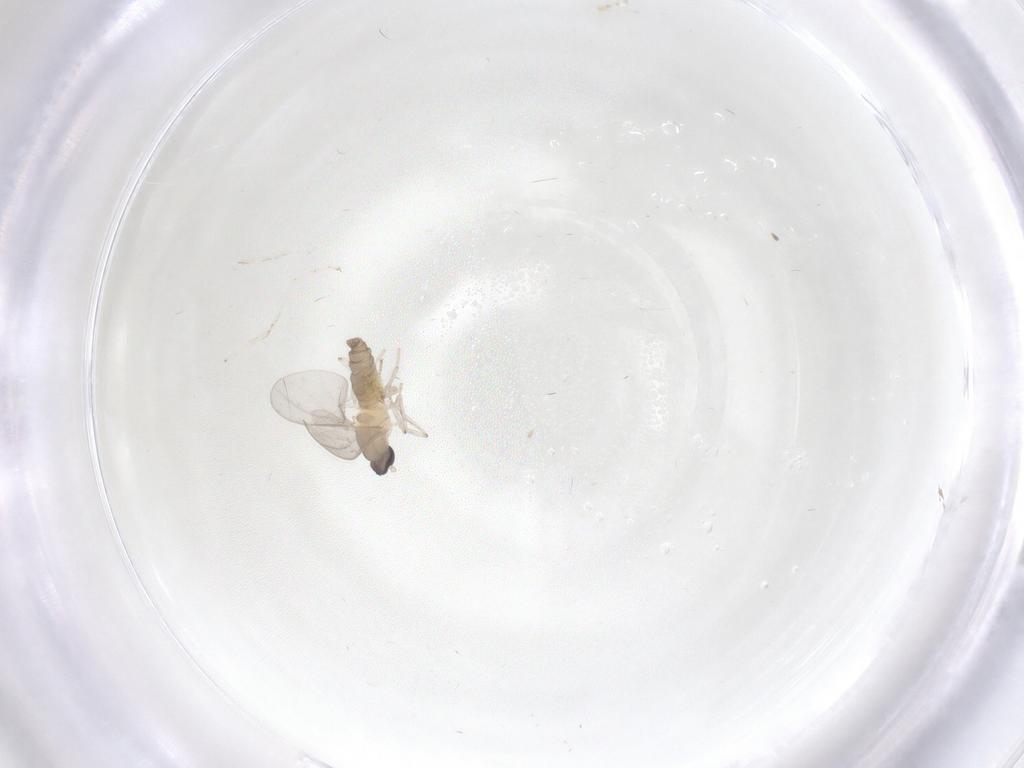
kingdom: Animalia
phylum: Arthropoda
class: Insecta
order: Diptera
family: Cecidomyiidae
